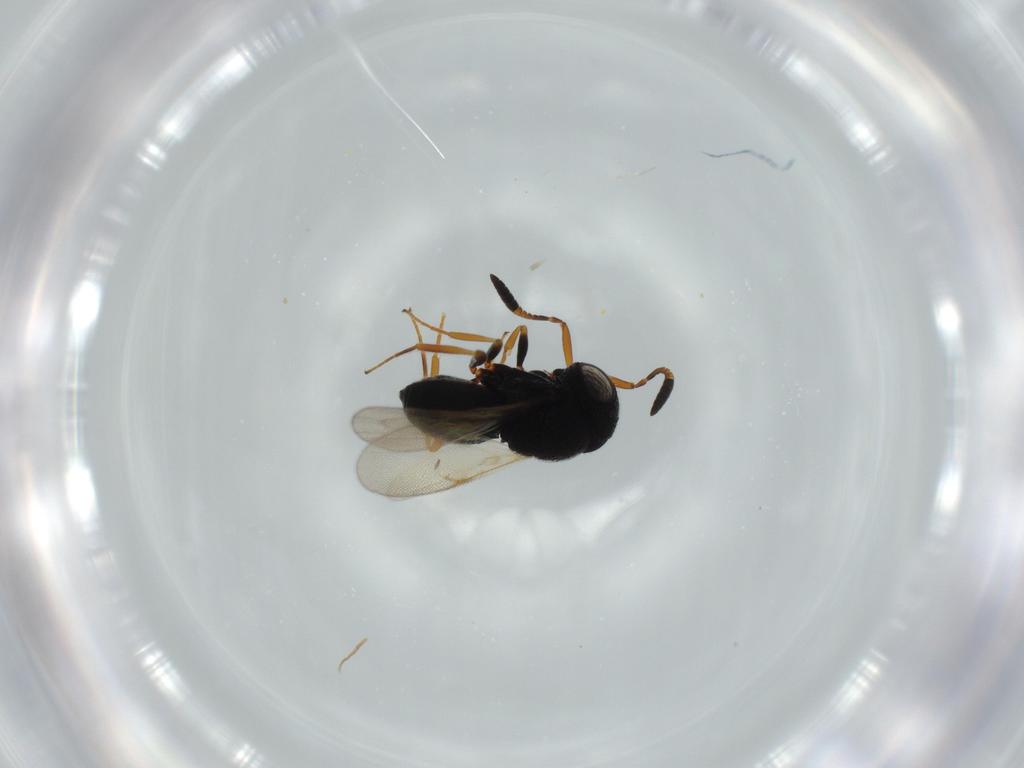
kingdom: Animalia
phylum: Arthropoda
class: Insecta
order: Hymenoptera
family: Scelionidae
